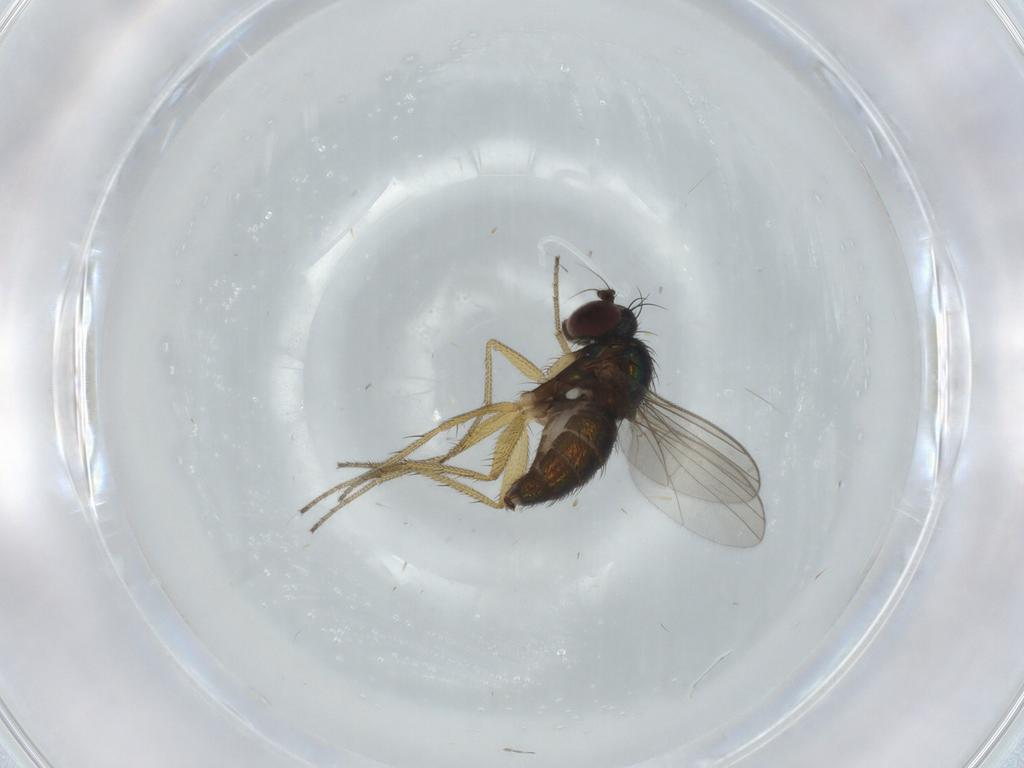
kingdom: Animalia
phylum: Arthropoda
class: Insecta
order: Diptera
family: Dolichopodidae
